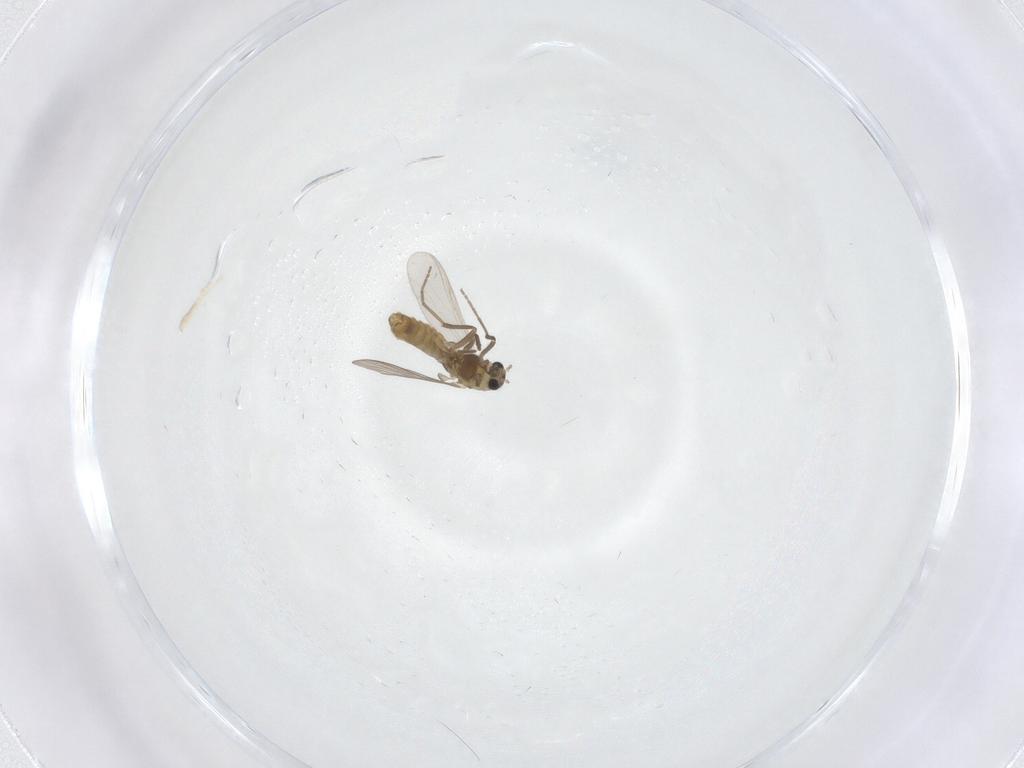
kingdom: Animalia
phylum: Arthropoda
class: Insecta
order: Diptera
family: Chironomidae
